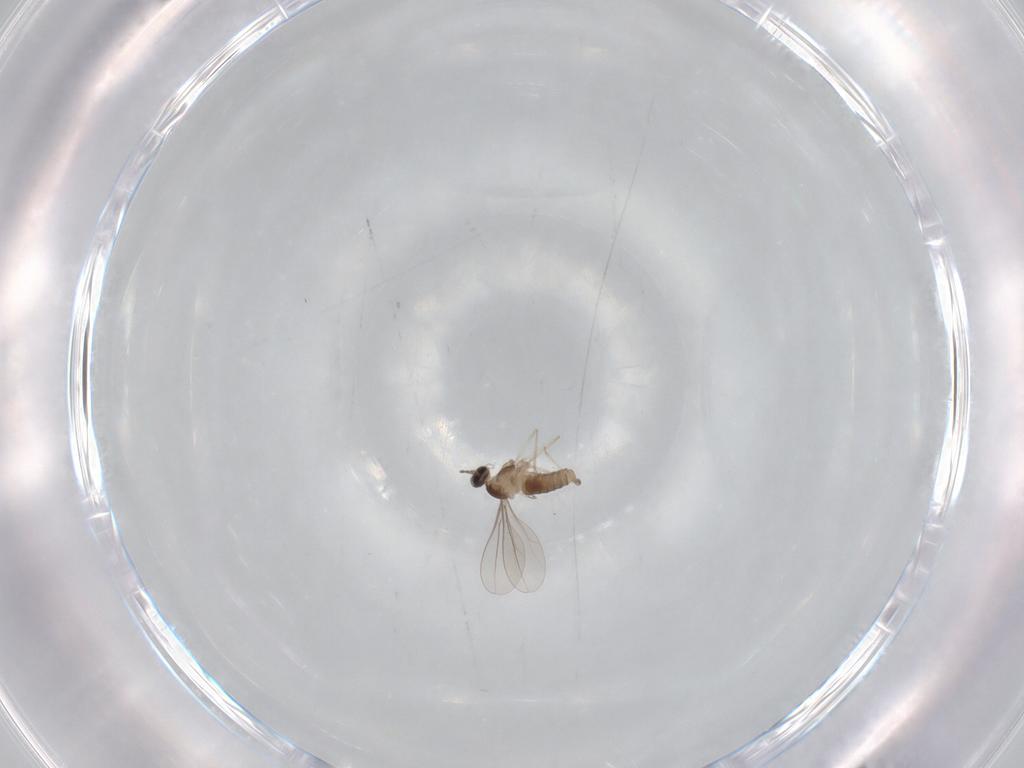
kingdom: Animalia
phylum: Arthropoda
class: Insecta
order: Diptera
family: Cecidomyiidae
